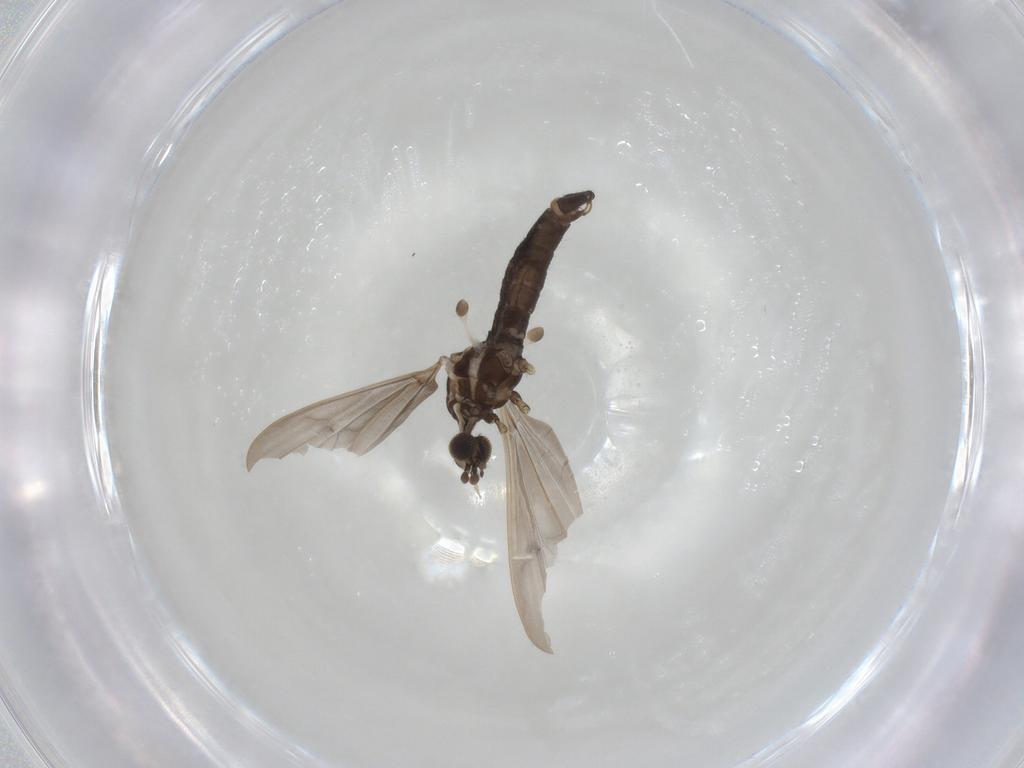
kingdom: Animalia
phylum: Arthropoda
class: Insecta
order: Diptera
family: Limoniidae
